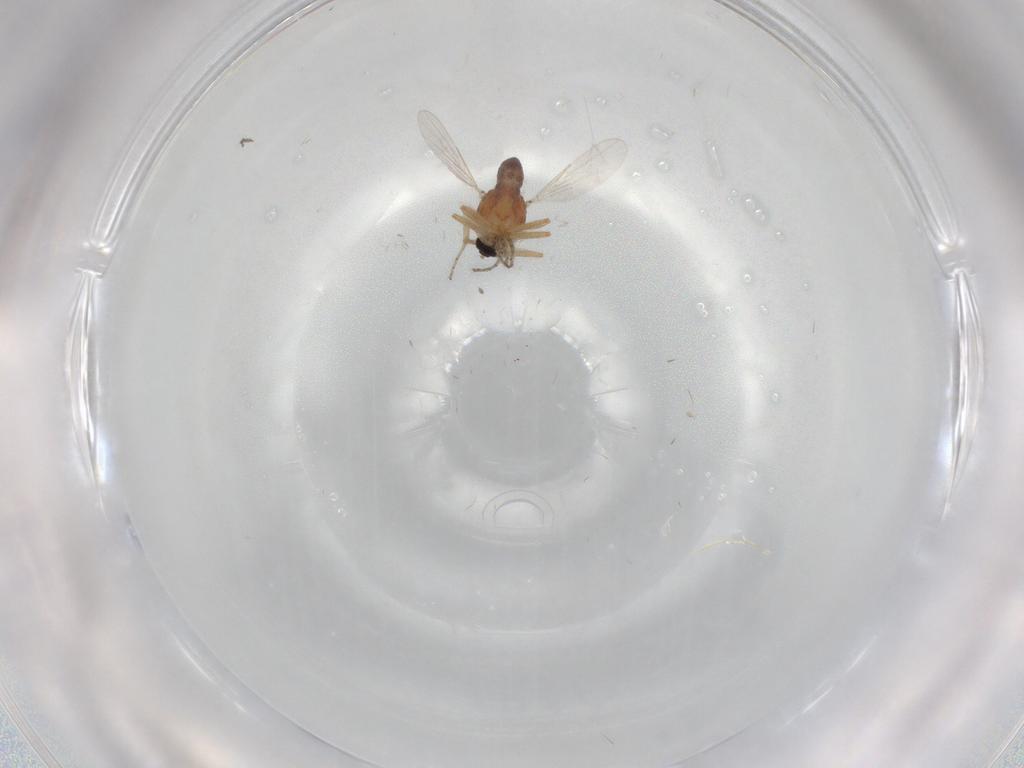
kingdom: Animalia
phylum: Arthropoda
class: Insecta
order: Diptera
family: Ceratopogonidae
